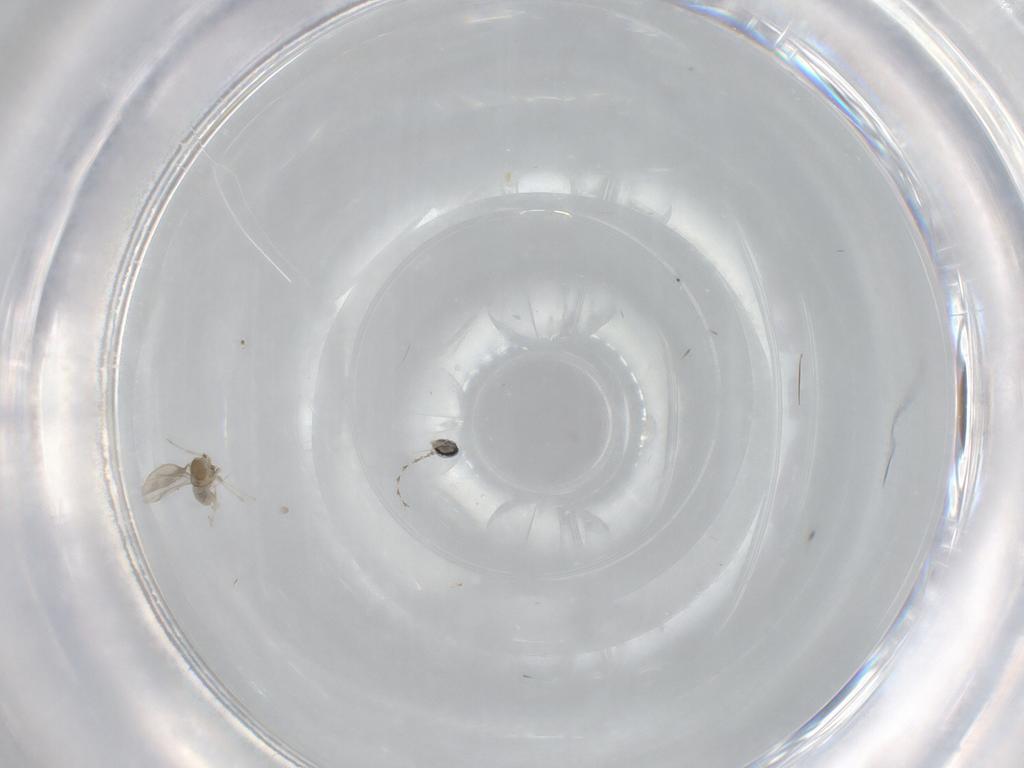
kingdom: Animalia
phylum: Arthropoda
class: Insecta
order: Diptera
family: Cecidomyiidae
